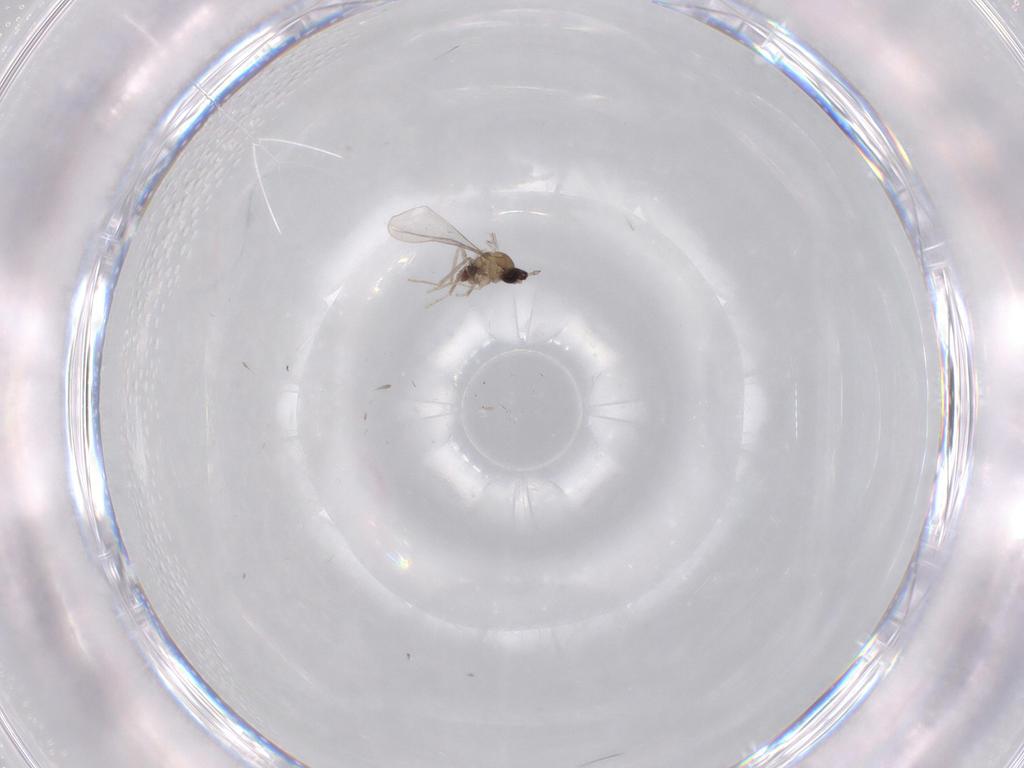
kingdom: Animalia
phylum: Arthropoda
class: Insecta
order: Diptera
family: Cecidomyiidae
